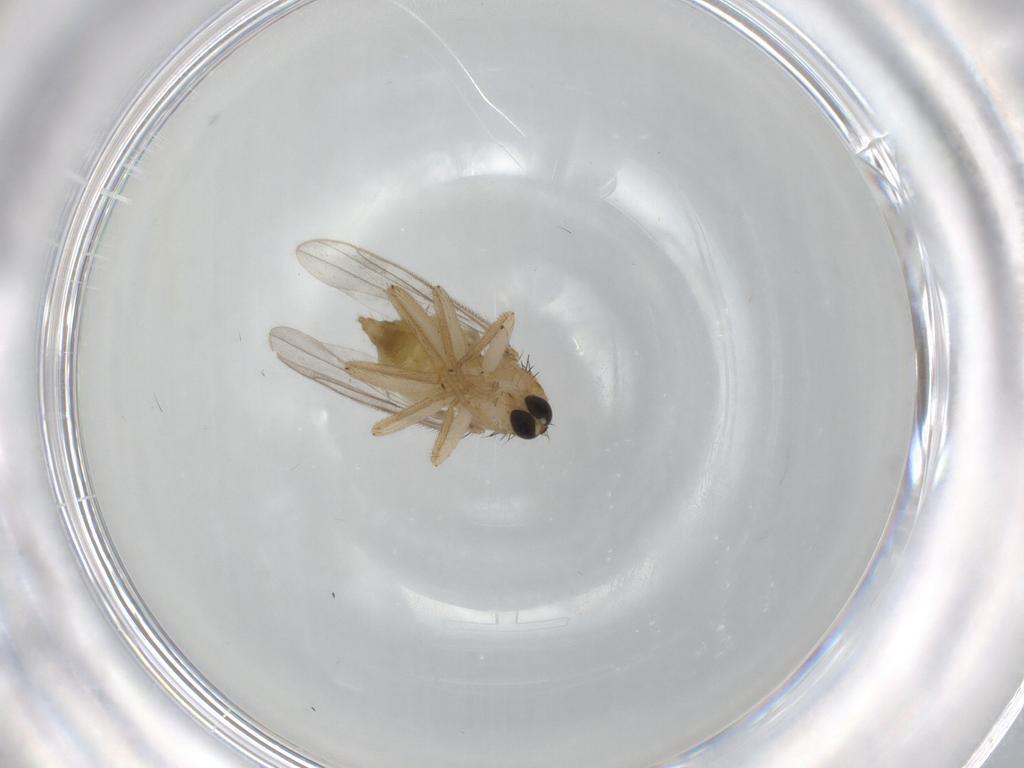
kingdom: Animalia
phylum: Arthropoda
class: Insecta
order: Diptera
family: Hybotidae
